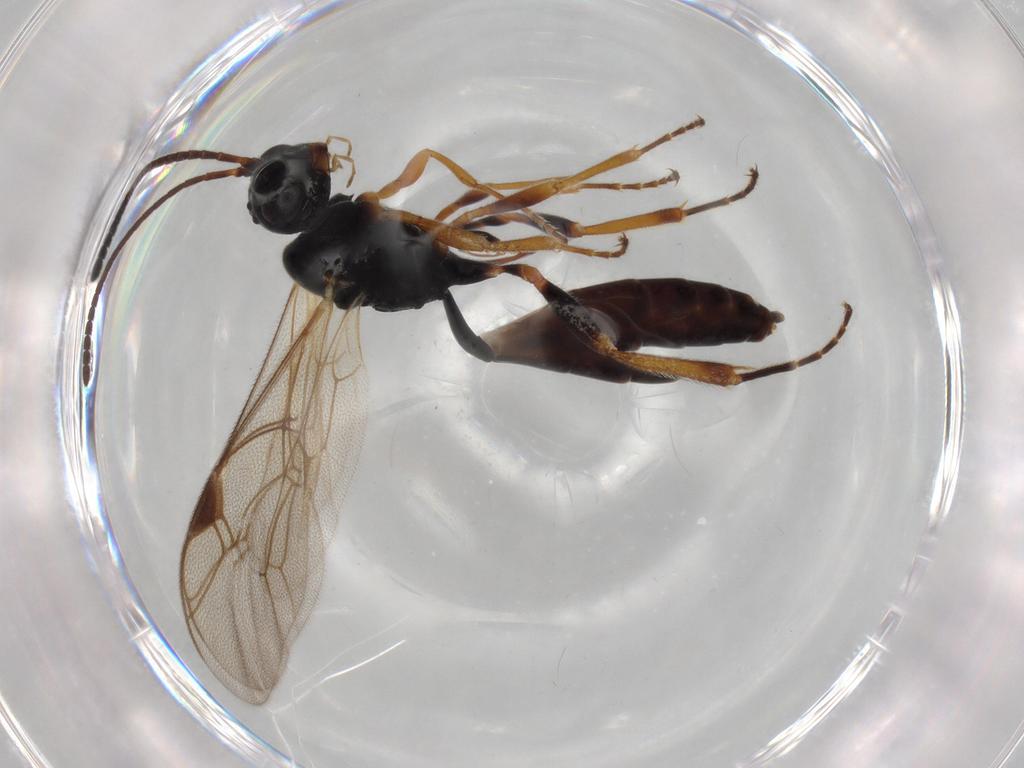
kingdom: Animalia
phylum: Arthropoda
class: Insecta
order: Hymenoptera
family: Ichneumonidae
